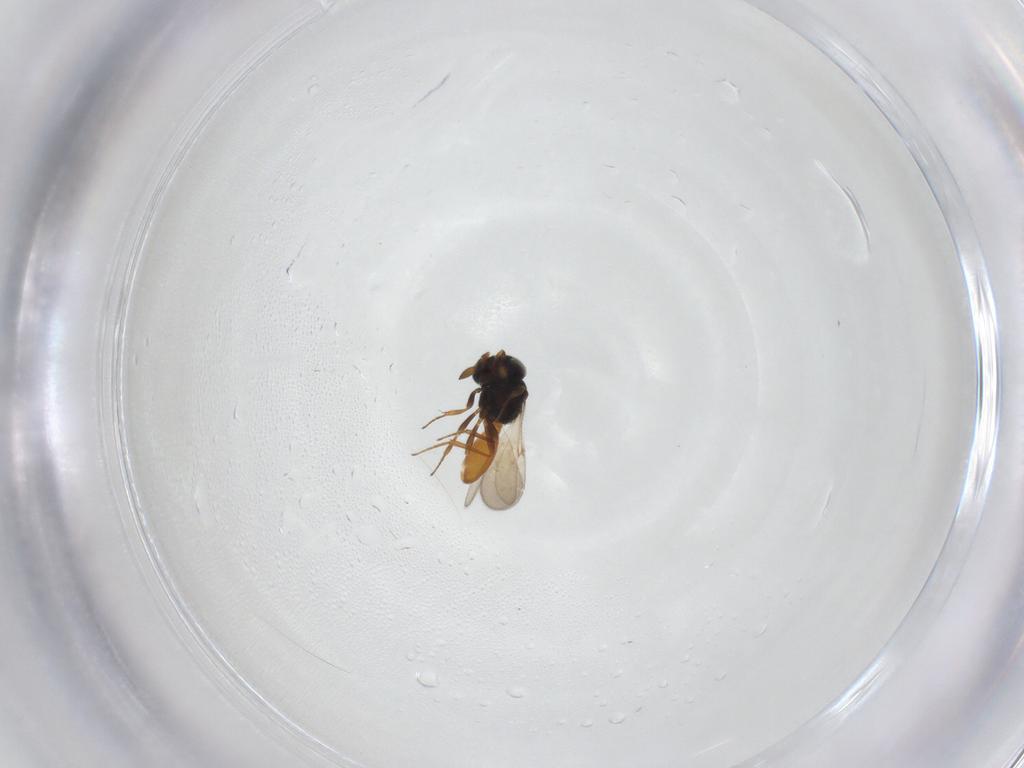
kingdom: Animalia
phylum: Arthropoda
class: Insecta
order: Hymenoptera
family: Scelionidae
